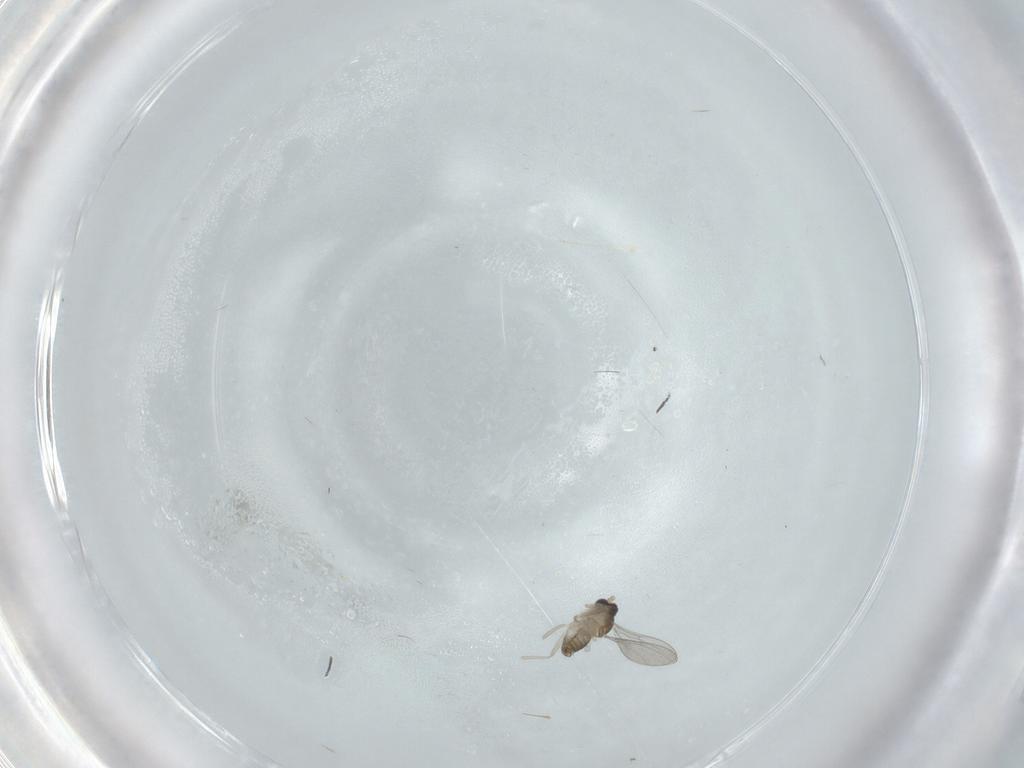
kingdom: Animalia
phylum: Arthropoda
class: Insecta
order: Diptera
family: Cecidomyiidae
